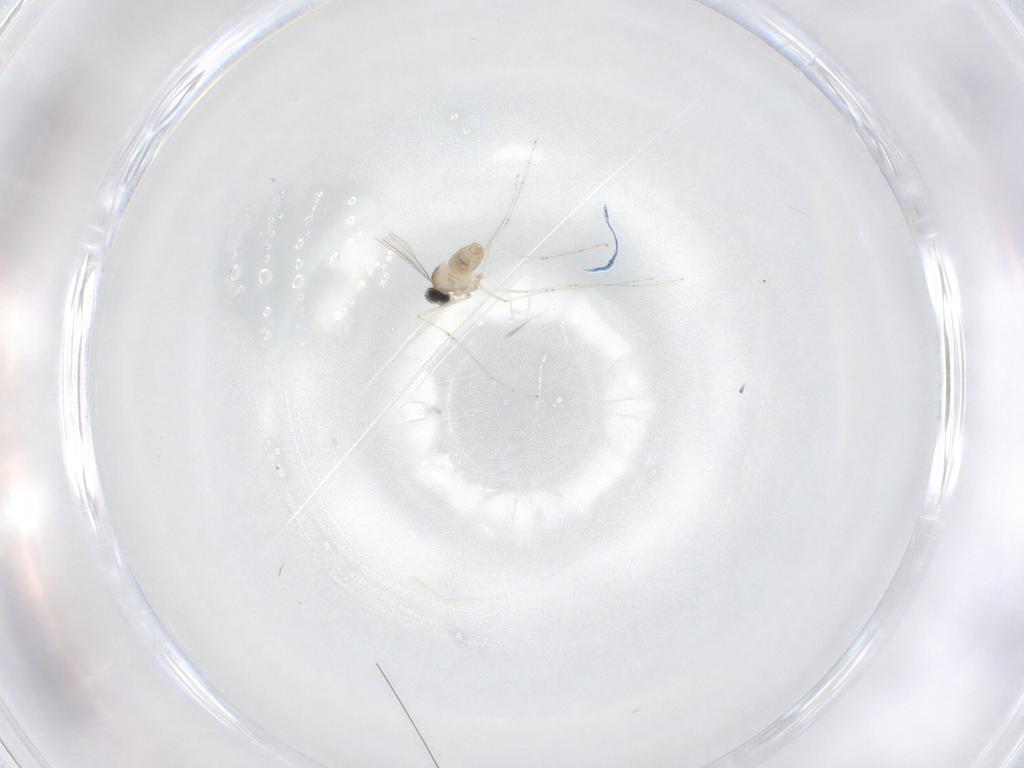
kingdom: Animalia
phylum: Arthropoda
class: Insecta
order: Diptera
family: Cecidomyiidae
